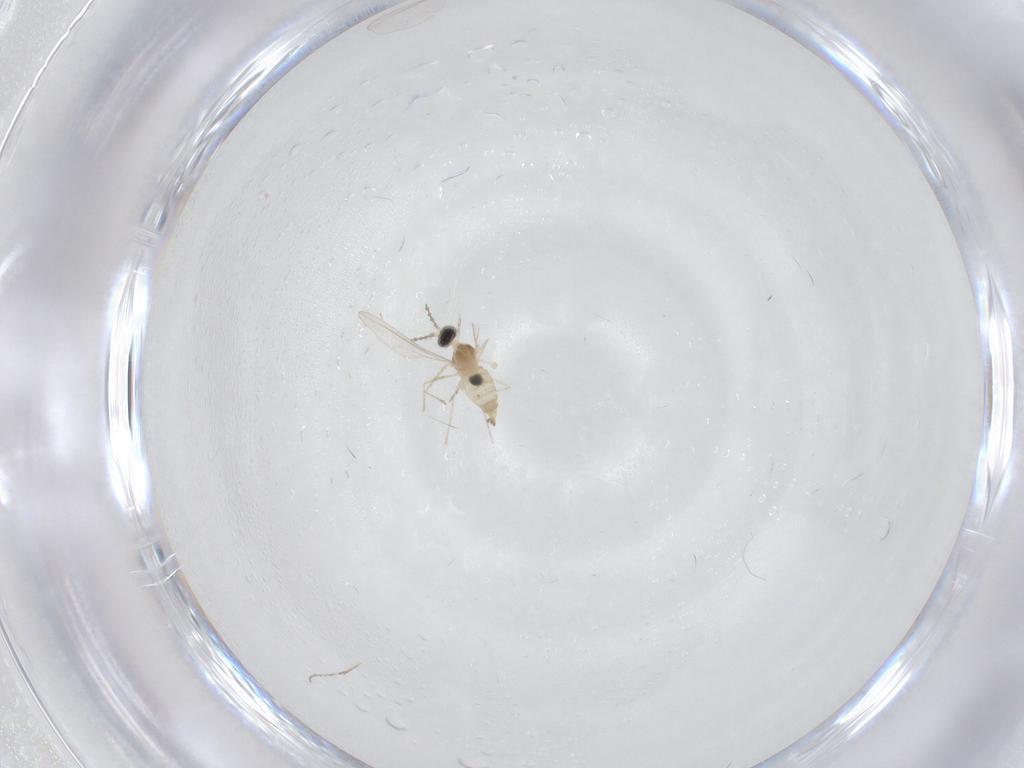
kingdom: Animalia
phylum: Arthropoda
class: Insecta
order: Diptera
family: Cecidomyiidae
